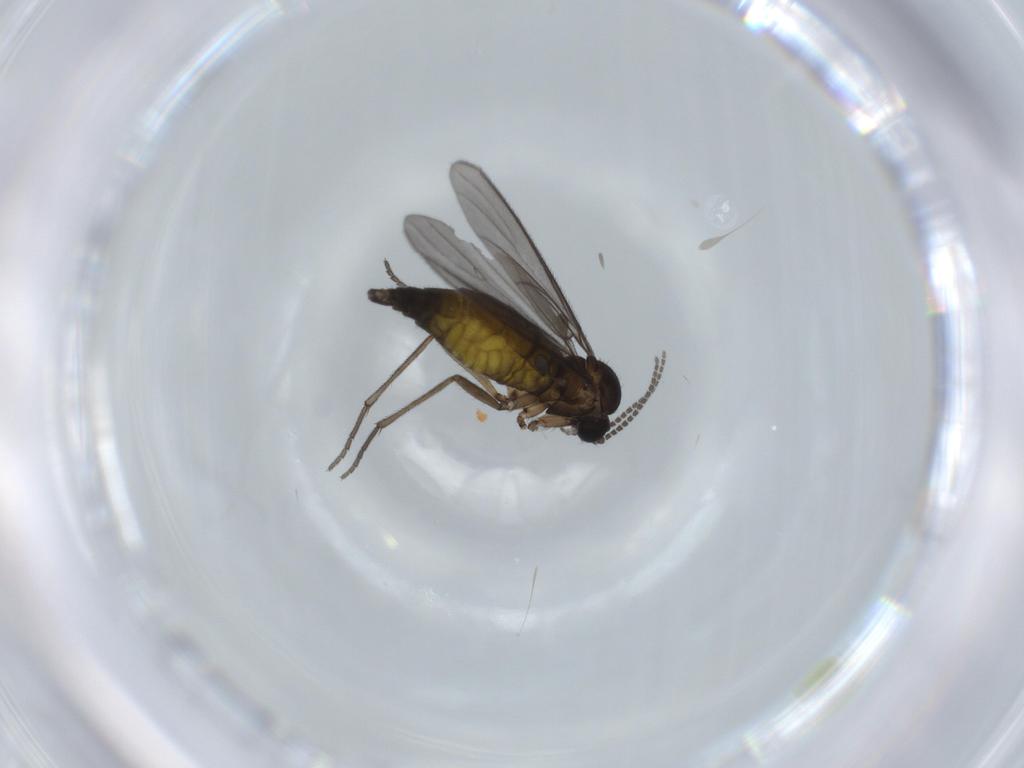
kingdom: Animalia
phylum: Arthropoda
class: Insecta
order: Diptera
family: Sciaridae
